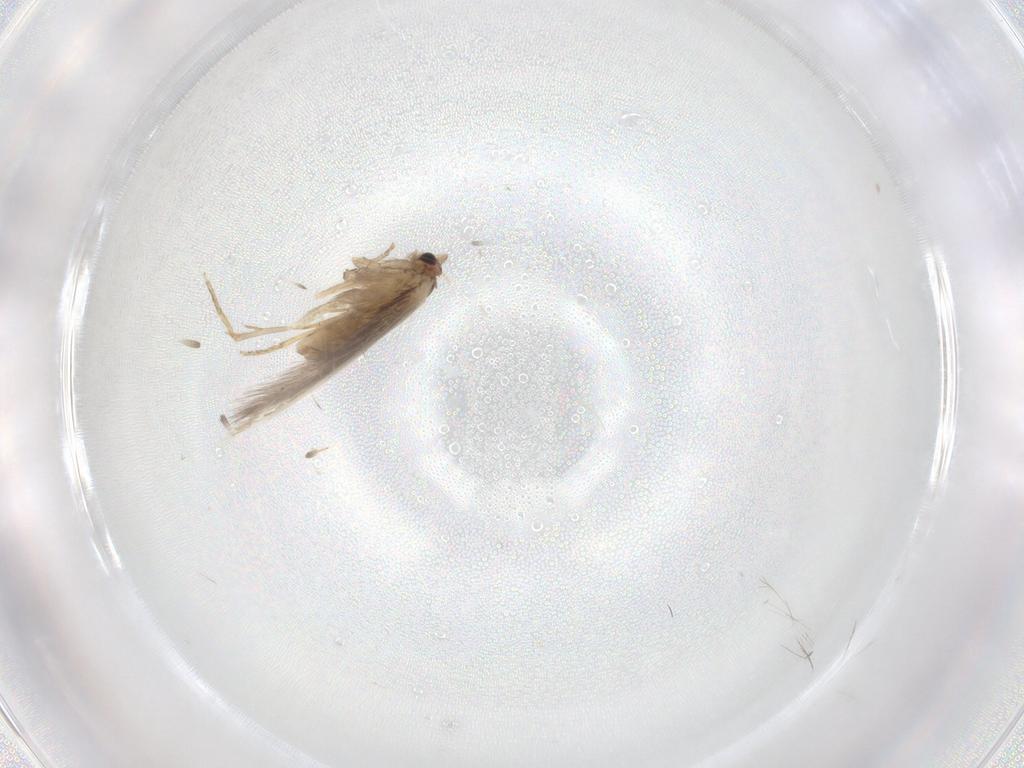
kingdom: Animalia
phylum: Arthropoda
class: Insecta
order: Lepidoptera
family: Nepticulidae
